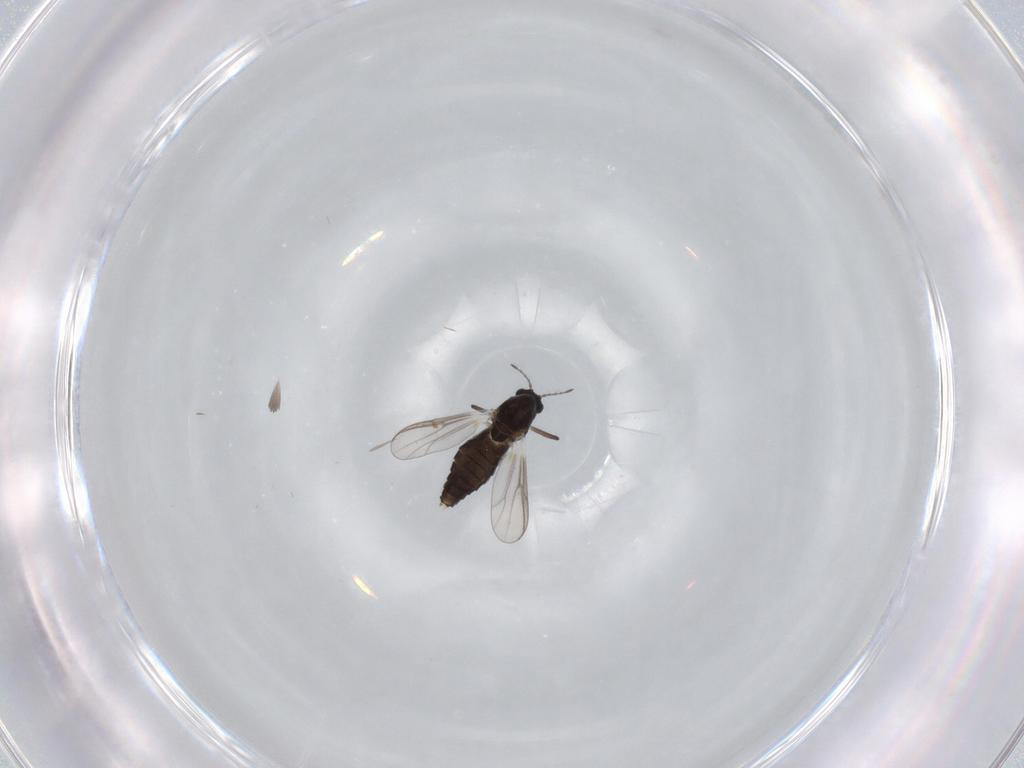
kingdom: Animalia
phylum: Arthropoda
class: Insecta
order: Diptera
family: Chironomidae
